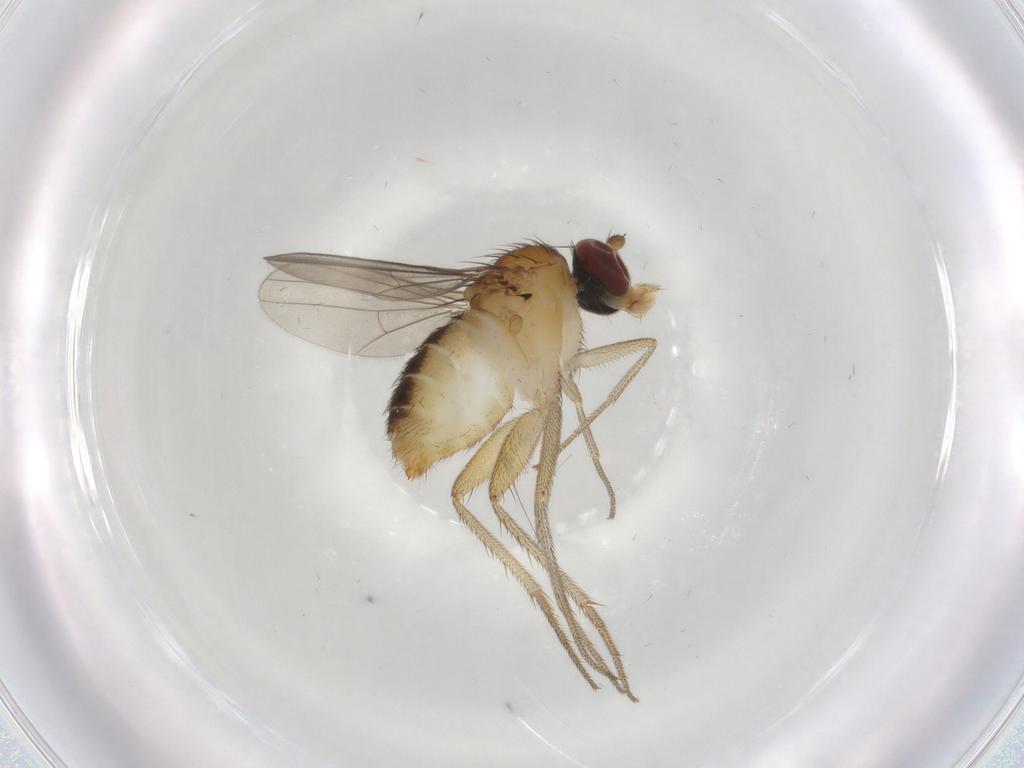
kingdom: Animalia
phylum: Arthropoda
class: Insecta
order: Diptera
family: Dolichopodidae
